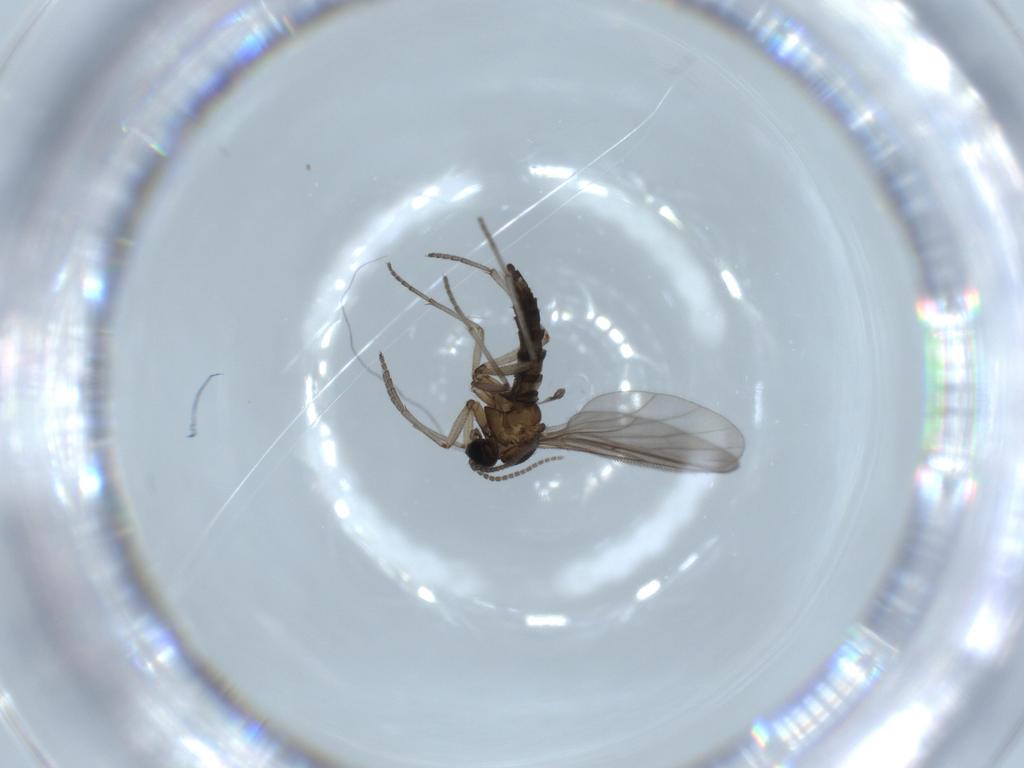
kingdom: Animalia
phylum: Arthropoda
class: Insecta
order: Diptera
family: Sciaridae
